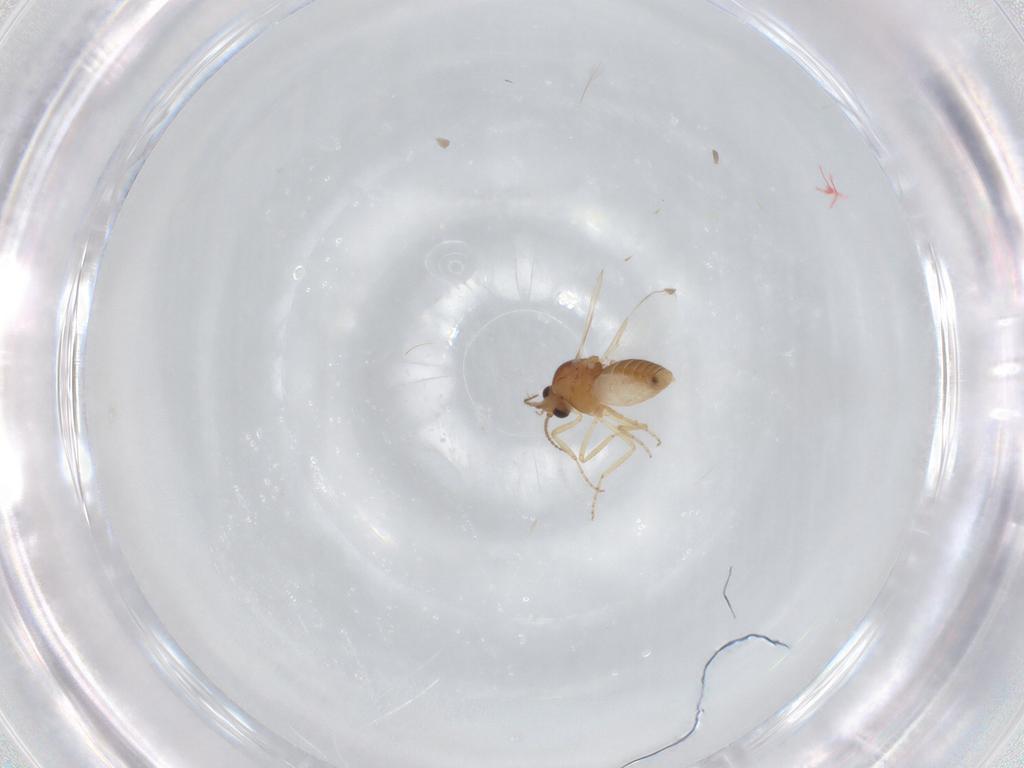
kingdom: Animalia
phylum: Arthropoda
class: Insecta
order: Diptera
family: Ceratopogonidae
